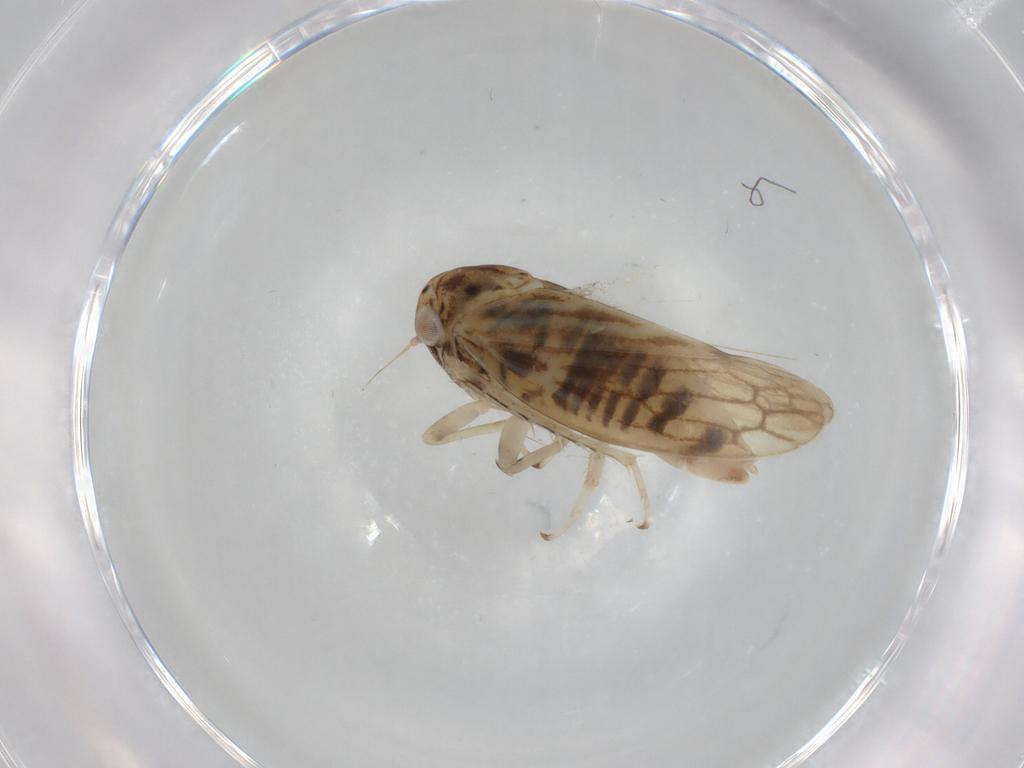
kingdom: Animalia
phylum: Arthropoda
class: Insecta
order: Hemiptera
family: Cicadellidae
